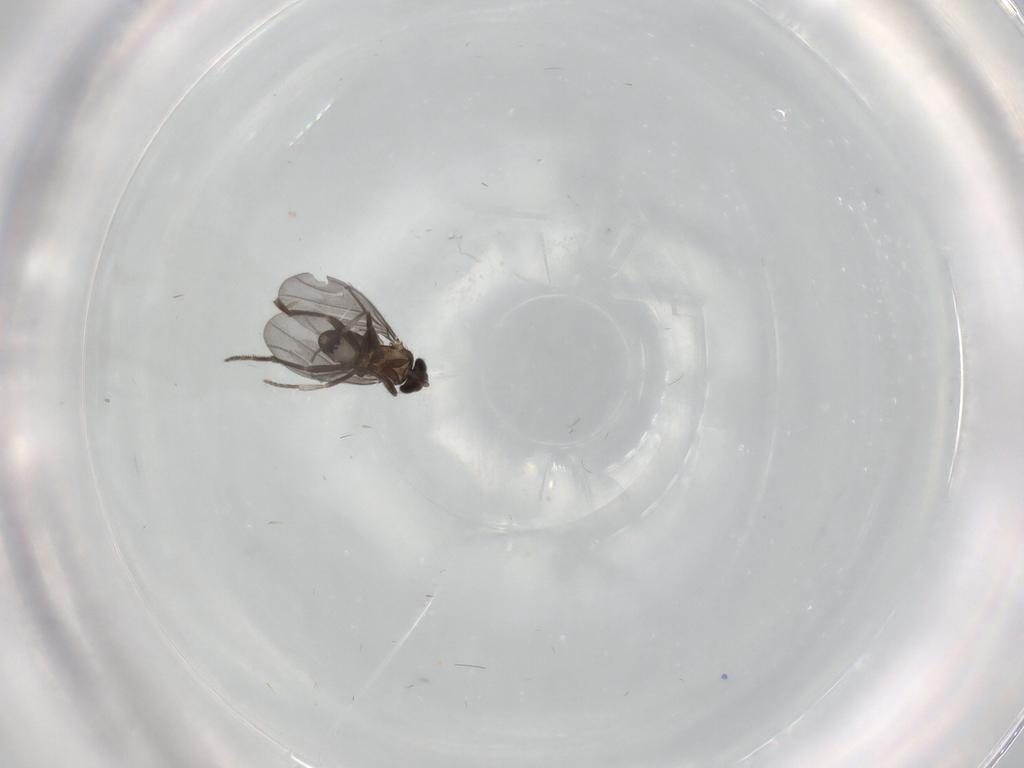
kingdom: Animalia
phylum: Arthropoda
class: Insecta
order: Diptera
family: Phoridae
